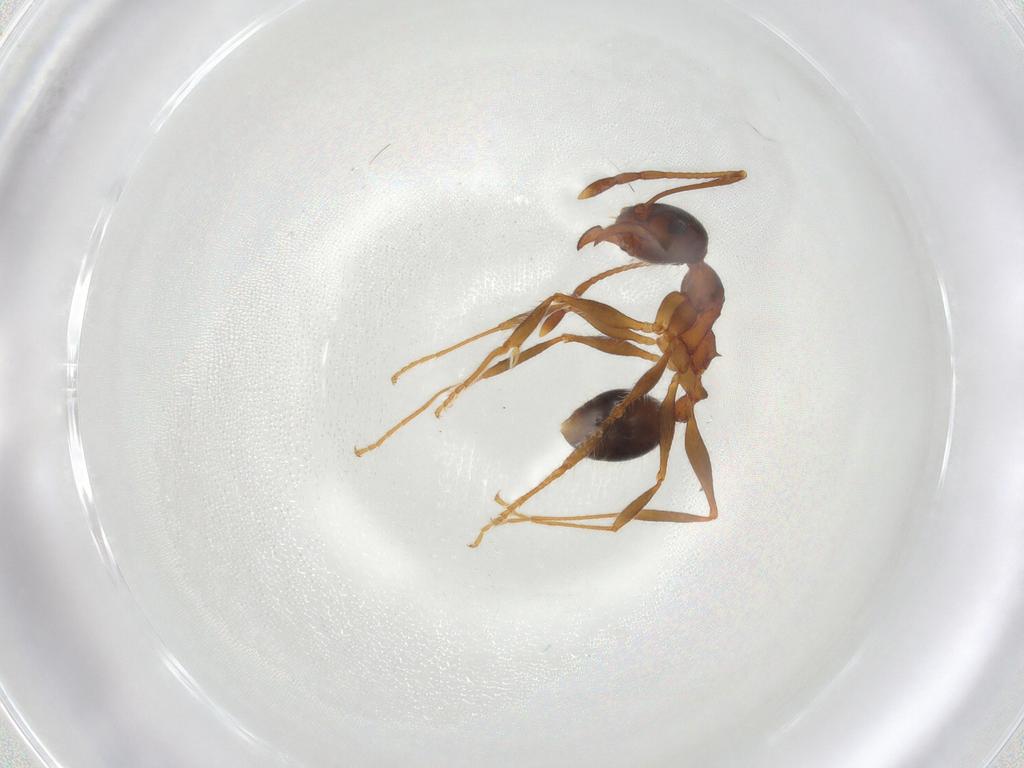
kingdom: Animalia
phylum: Arthropoda
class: Insecta
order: Hymenoptera
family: Formicidae
